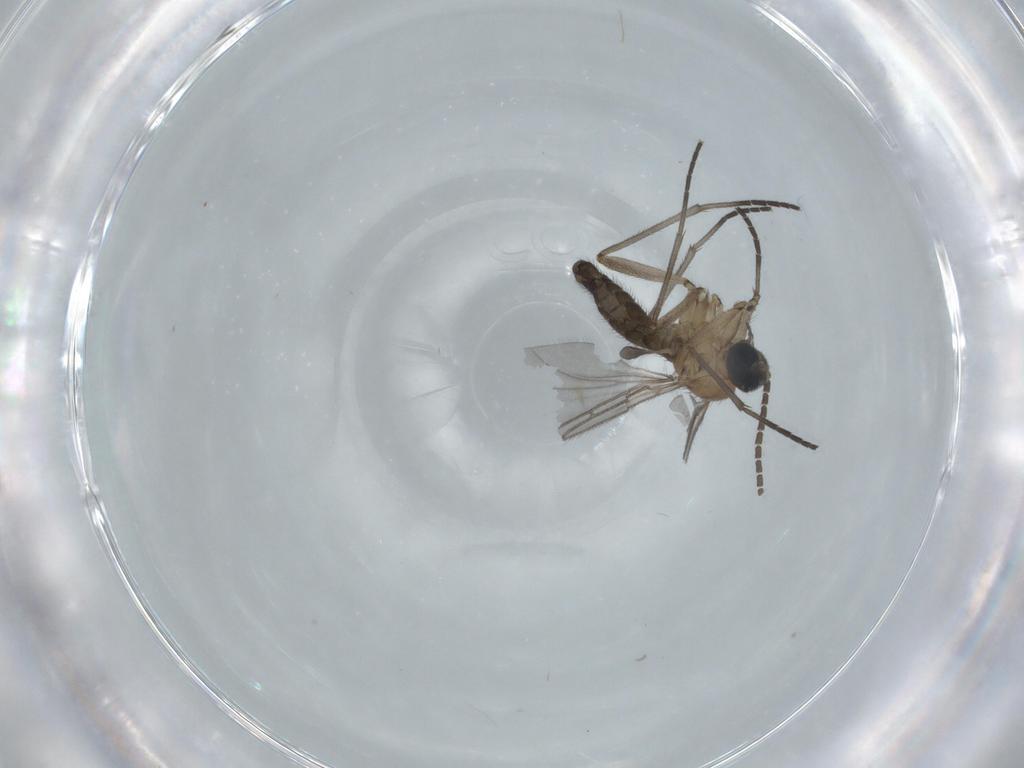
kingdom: Animalia
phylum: Arthropoda
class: Insecta
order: Diptera
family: Sciaridae
